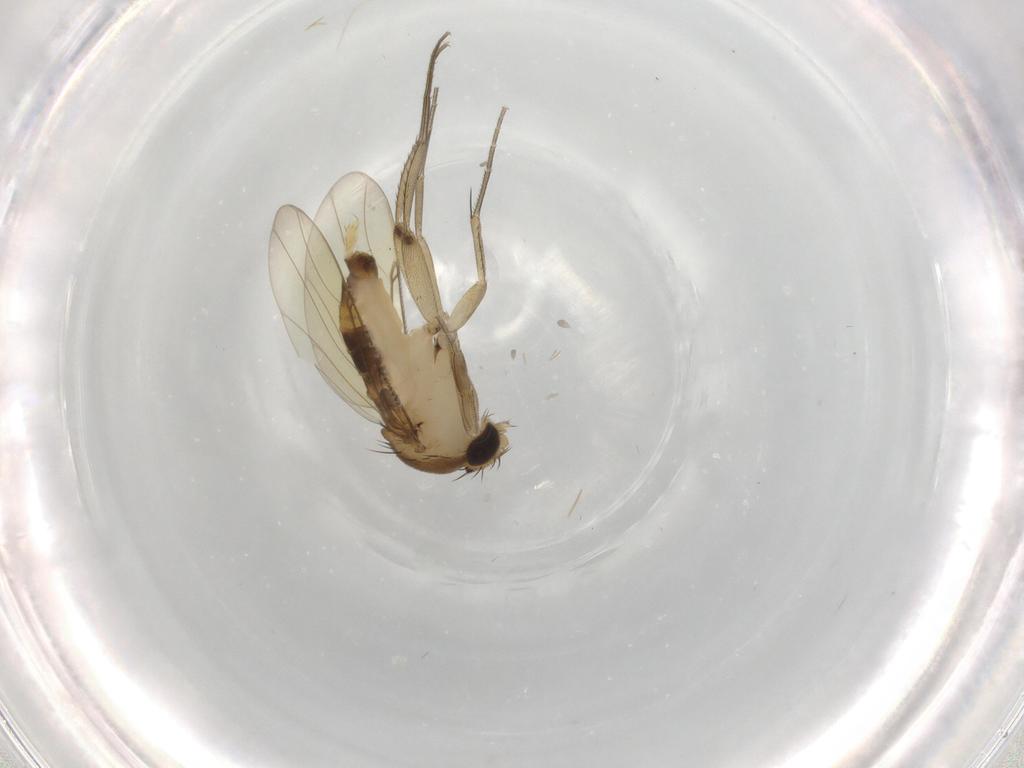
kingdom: Animalia
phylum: Arthropoda
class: Insecta
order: Diptera
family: Phoridae
